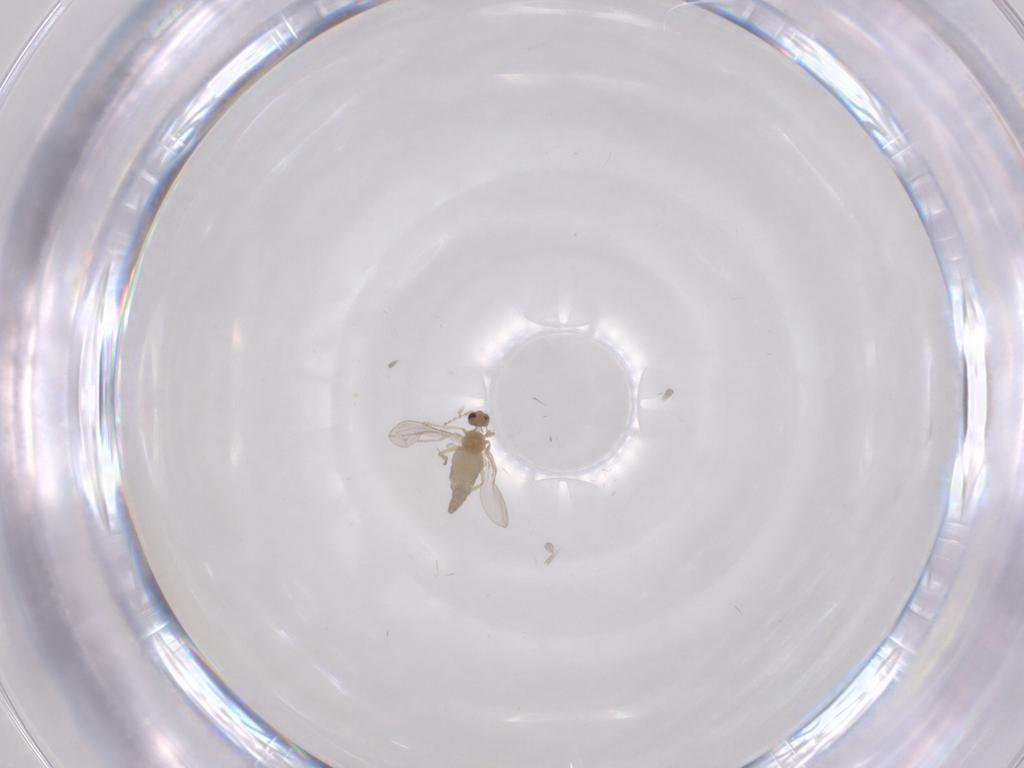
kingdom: Animalia
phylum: Arthropoda
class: Insecta
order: Diptera
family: Cecidomyiidae
